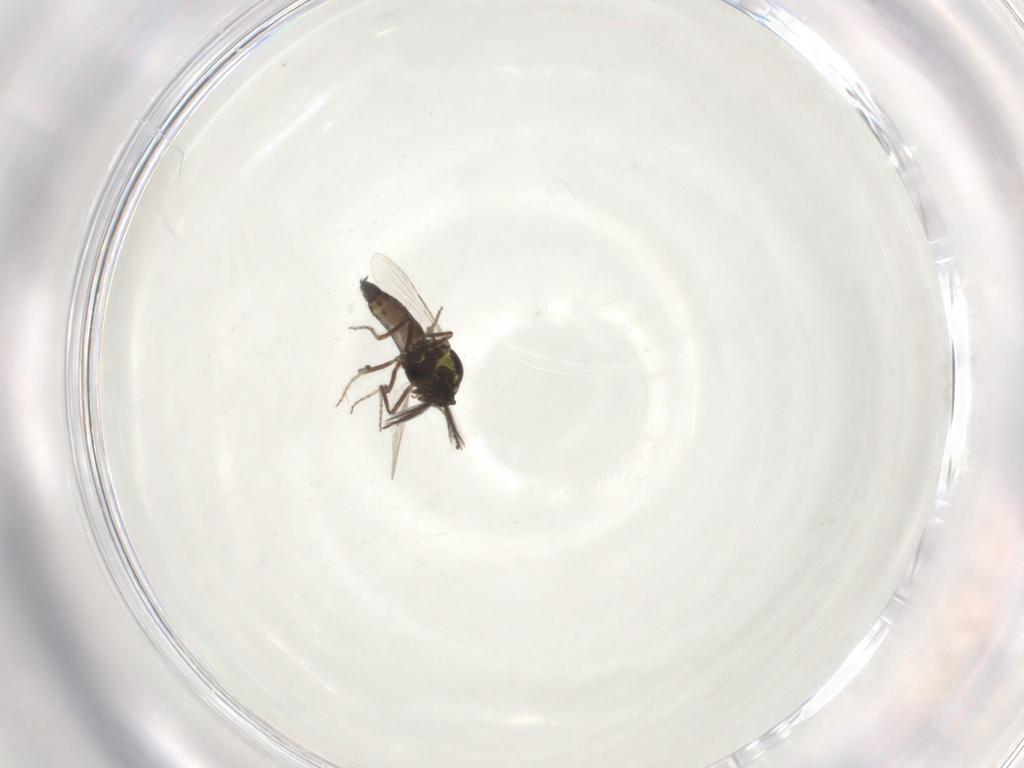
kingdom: Animalia
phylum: Arthropoda
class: Insecta
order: Diptera
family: Ceratopogonidae
